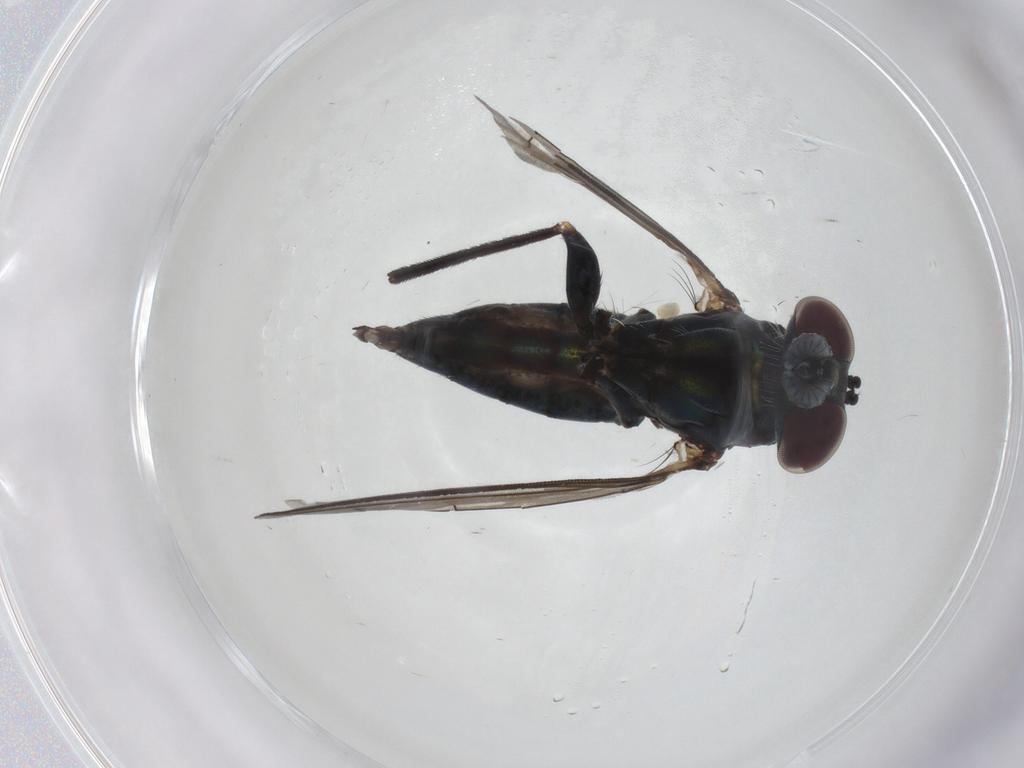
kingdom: Animalia
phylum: Arthropoda
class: Insecta
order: Diptera
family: Dolichopodidae
